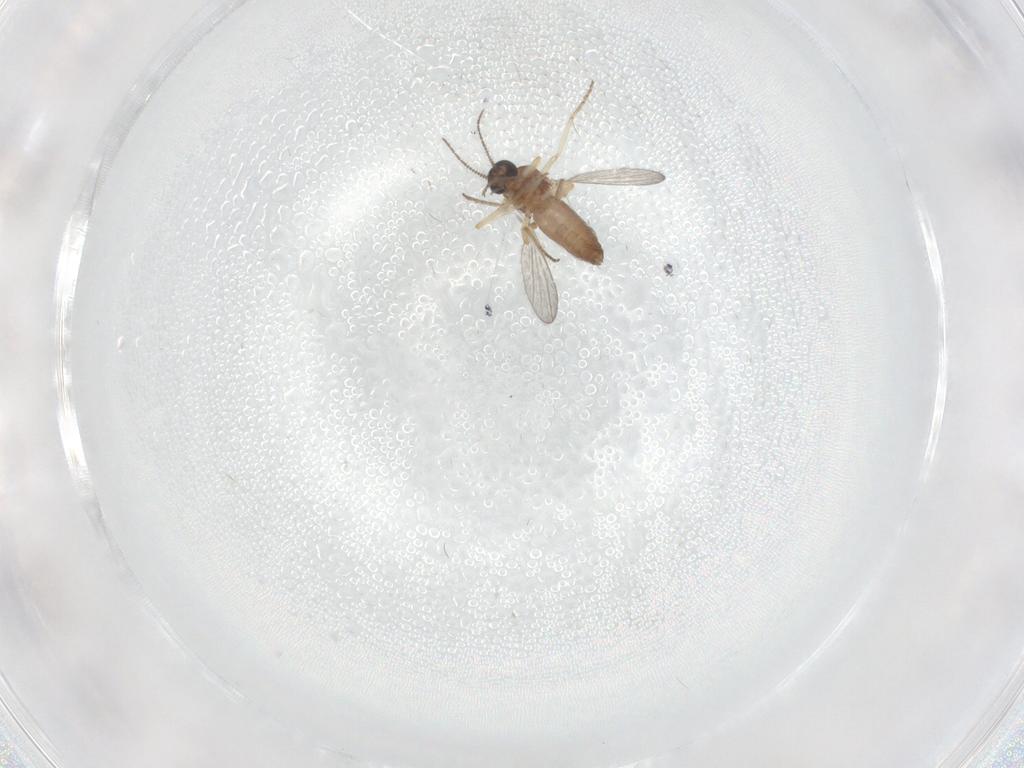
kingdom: Animalia
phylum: Arthropoda
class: Insecta
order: Diptera
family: Ceratopogonidae
